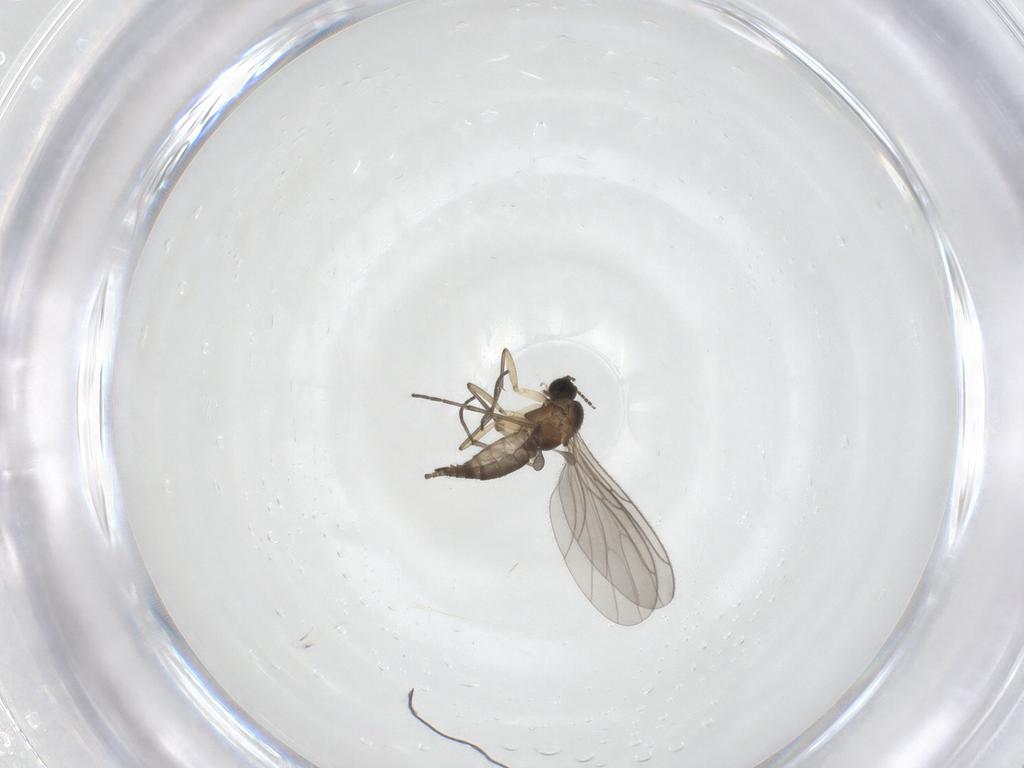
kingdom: Animalia
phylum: Arthropoda
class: Insecta
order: Diptera
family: Sciaridae
